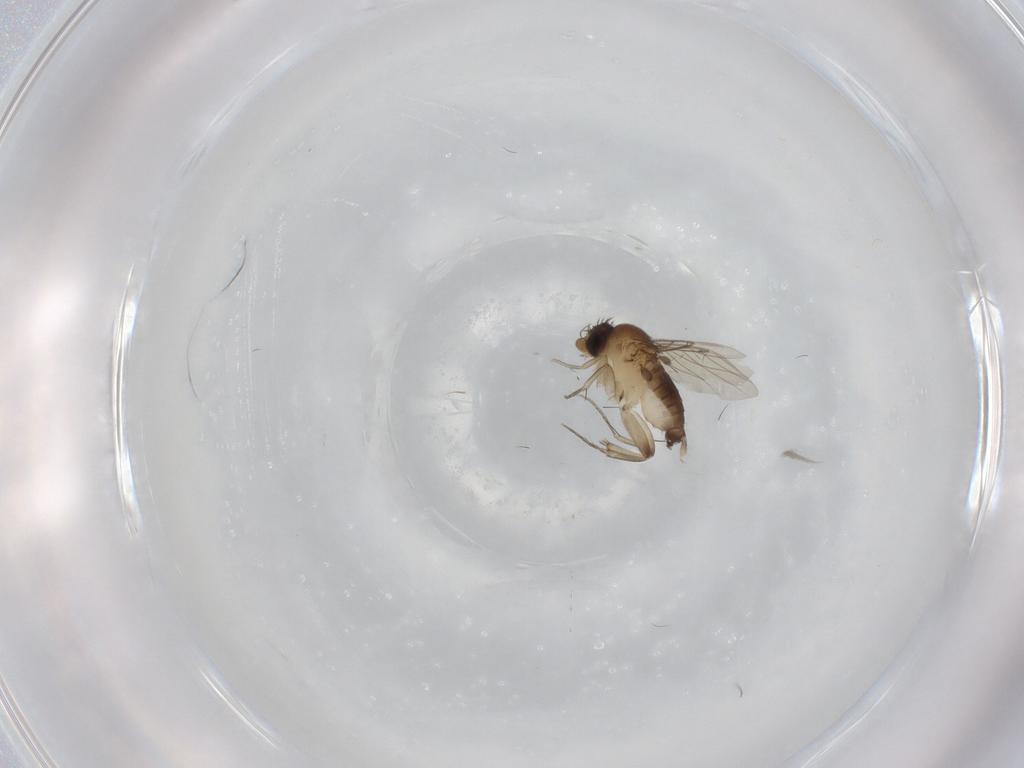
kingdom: Animalia
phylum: Arthropoda
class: Insecta
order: Diptera
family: Phoridae
